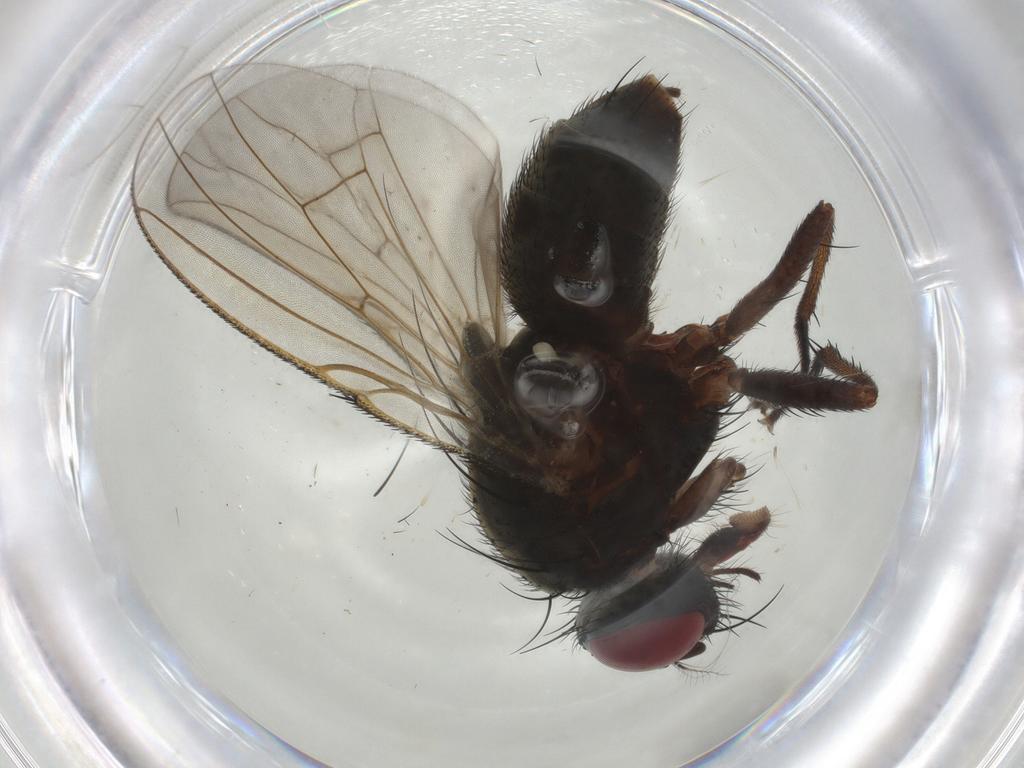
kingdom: Animalia
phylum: Arthropoda
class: Insecta
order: Diptera
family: Muscidae
